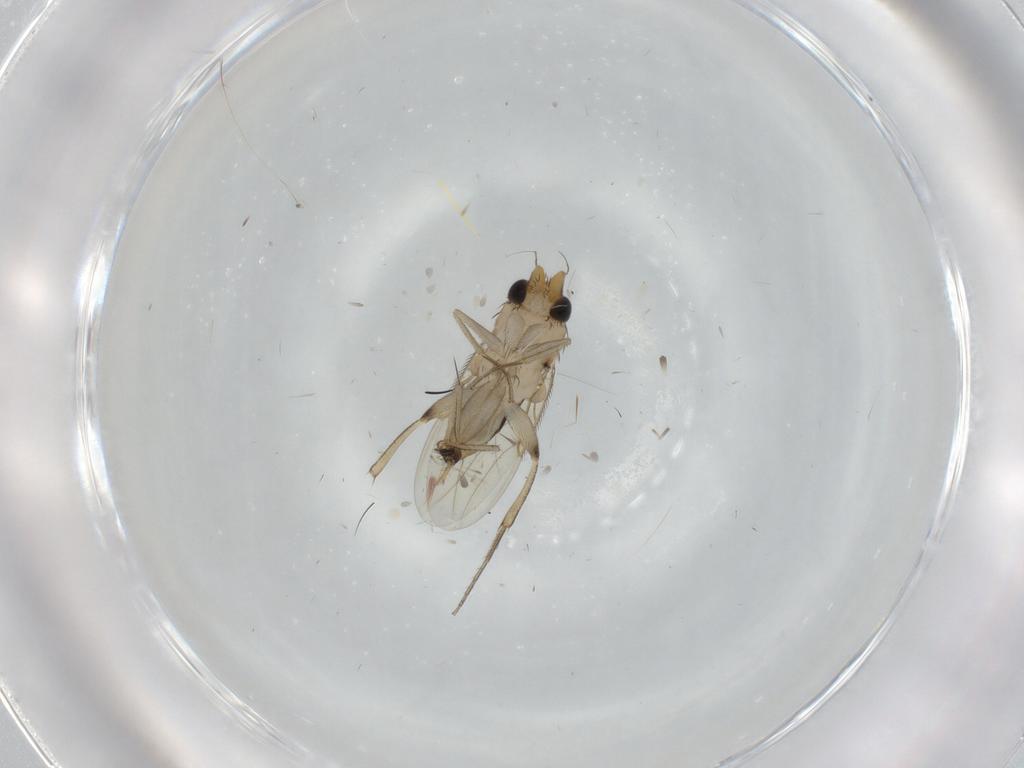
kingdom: Animalia
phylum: Arthropoda
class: Insecta
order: Diptera
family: Phoridae
